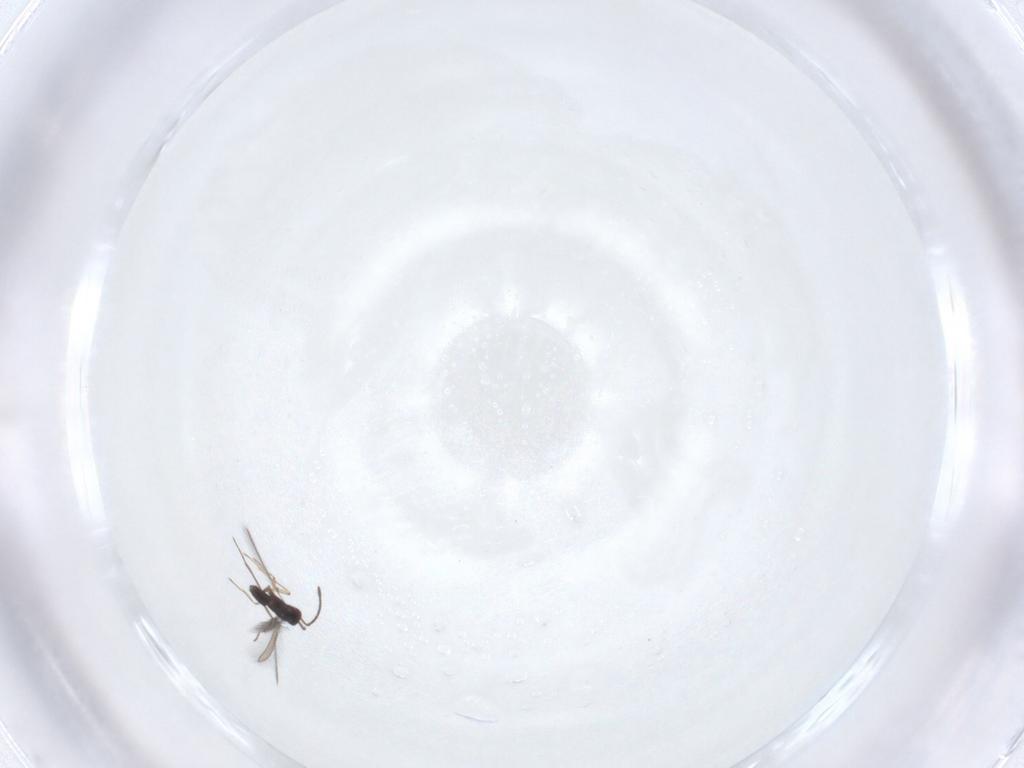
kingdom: Animalia
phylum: Arthropoda
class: Insecta
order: Hymenoptera
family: Mymaridae
